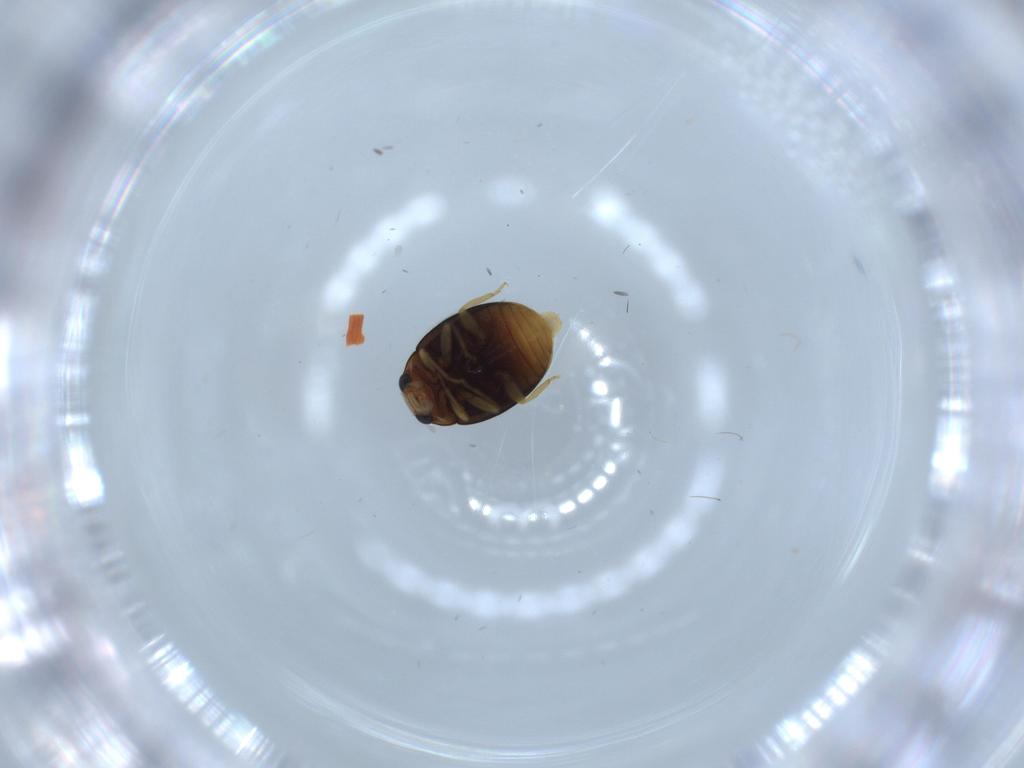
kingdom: Animalia
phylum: Arthropoda
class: Insecta
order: Coleoptera
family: Coccinellidae
